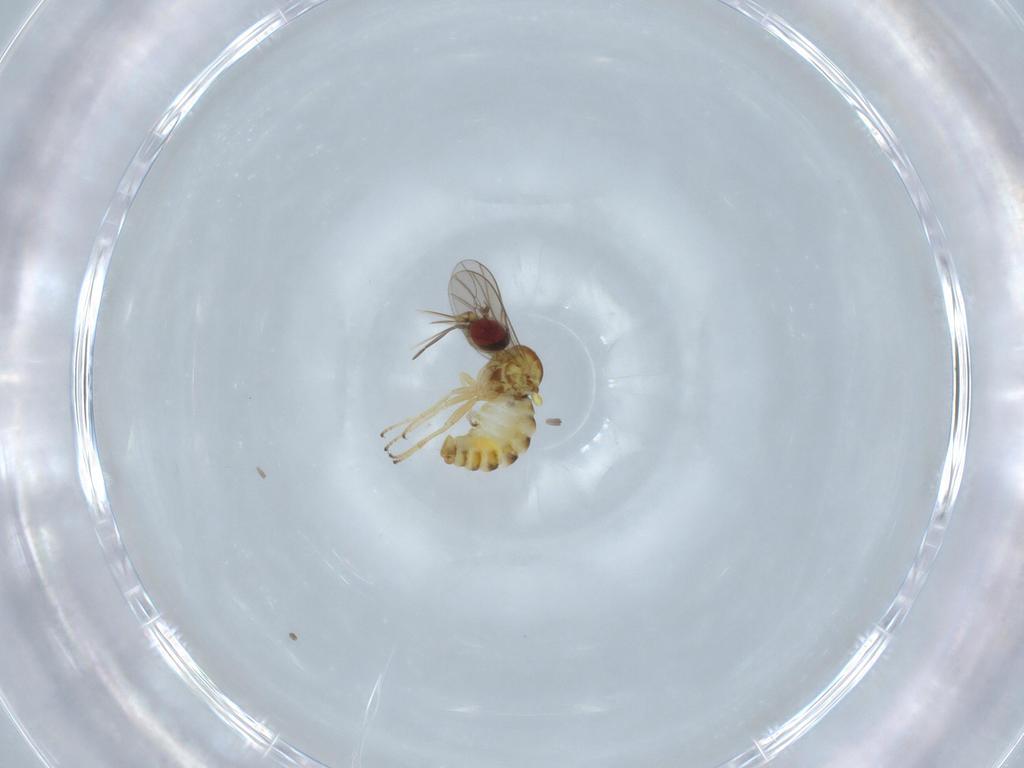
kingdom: Animalia
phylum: Arthropoda
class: Insecta
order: Diptera
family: Bombyliidae
